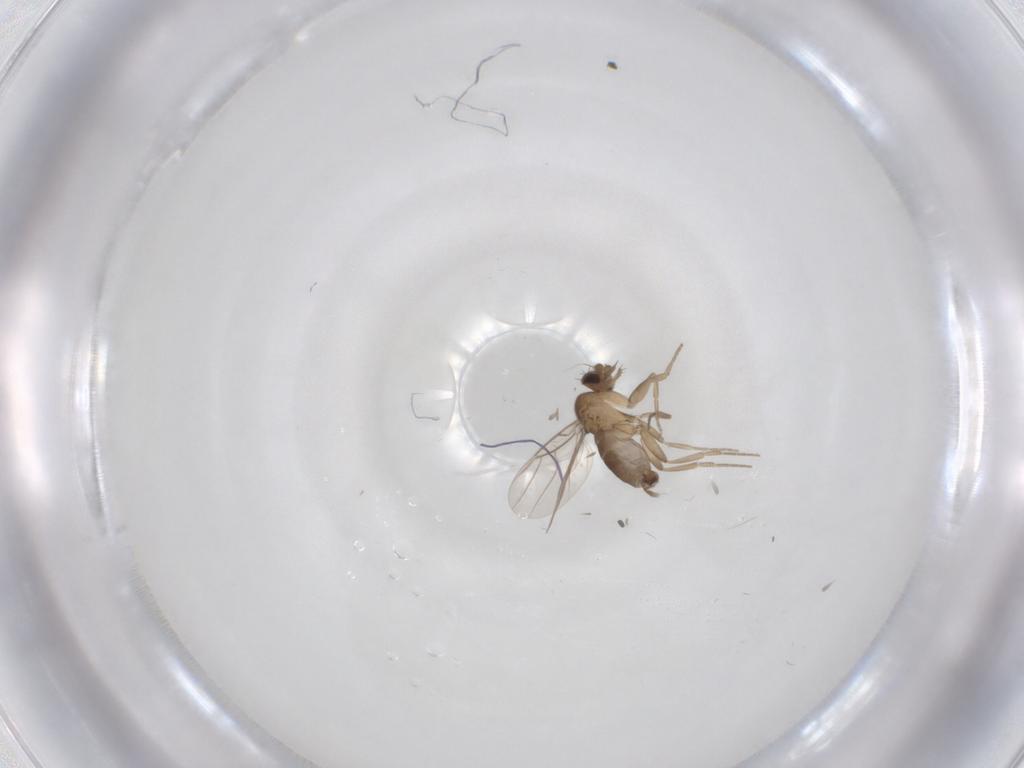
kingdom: Animalia
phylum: Arthropoda
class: Insecta
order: Diptera
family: Phoridae
